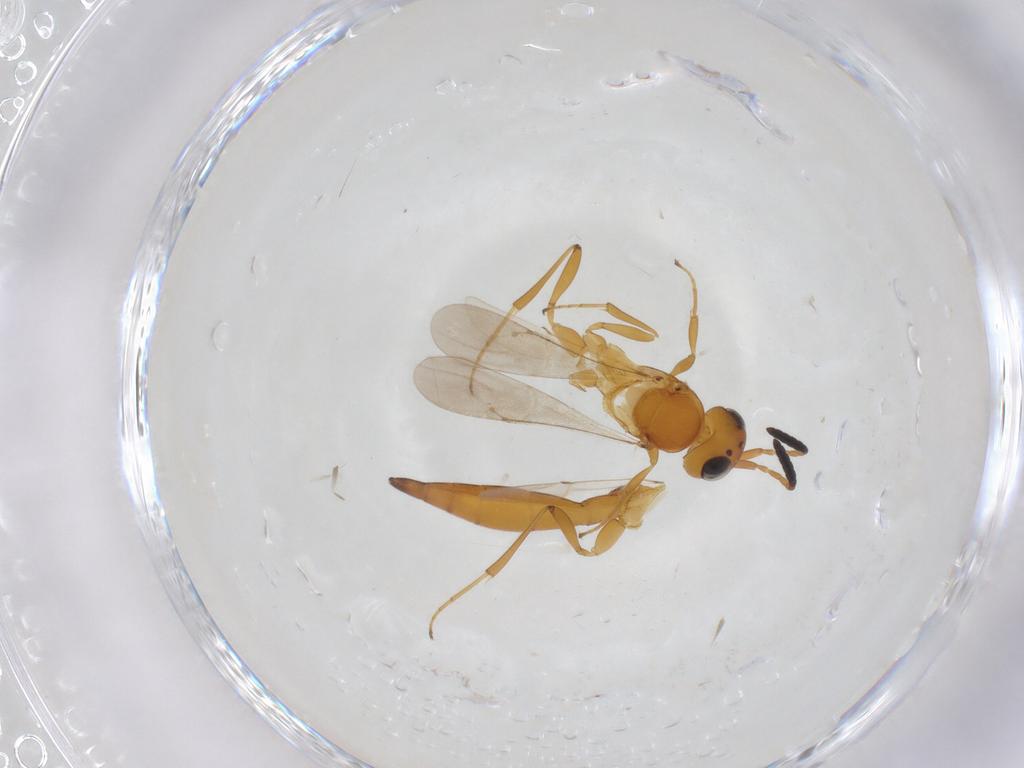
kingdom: Animalia
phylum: Arthropoda
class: Insecta
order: Hymenoptera
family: Scelionidae
